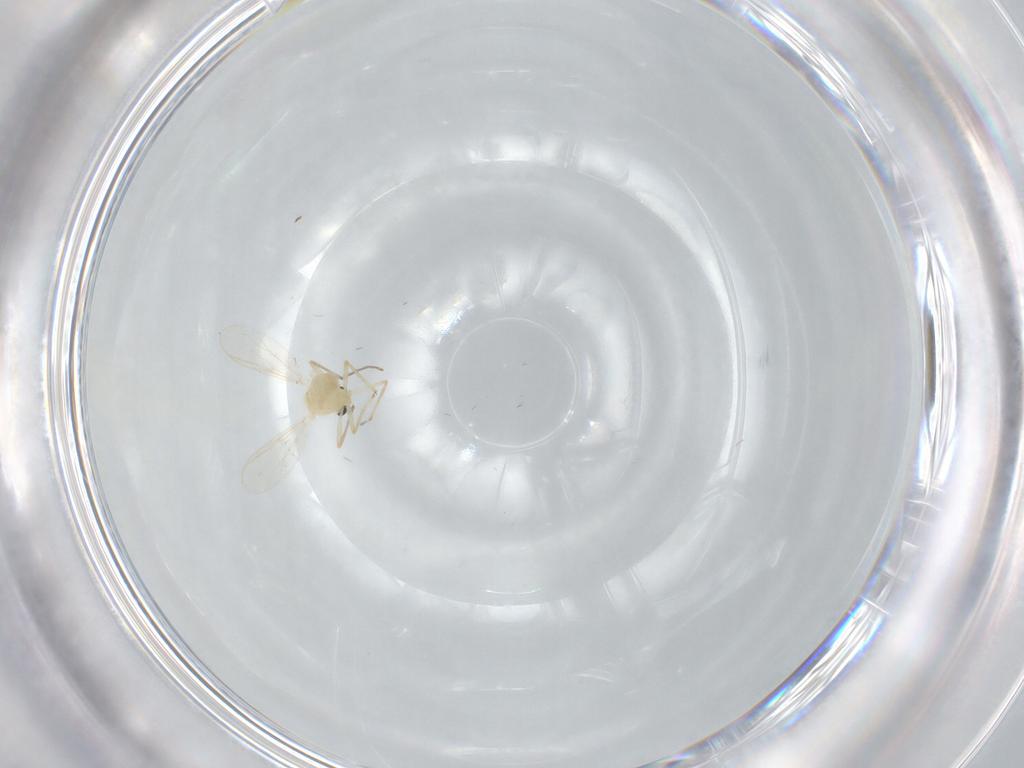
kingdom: Animalia
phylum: Arthropoda
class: Insecta
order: Diptera
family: Chironomidae
